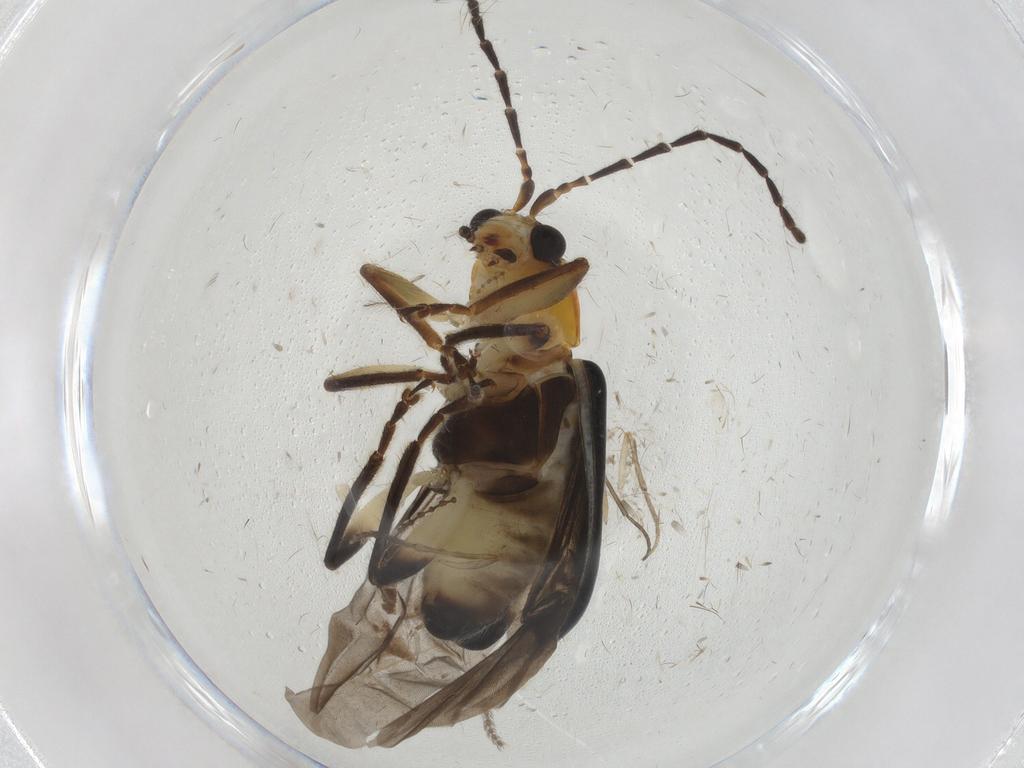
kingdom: Animalia
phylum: Arthropoda
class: Insecta
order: Coleoptera
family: Chrysomelidae
